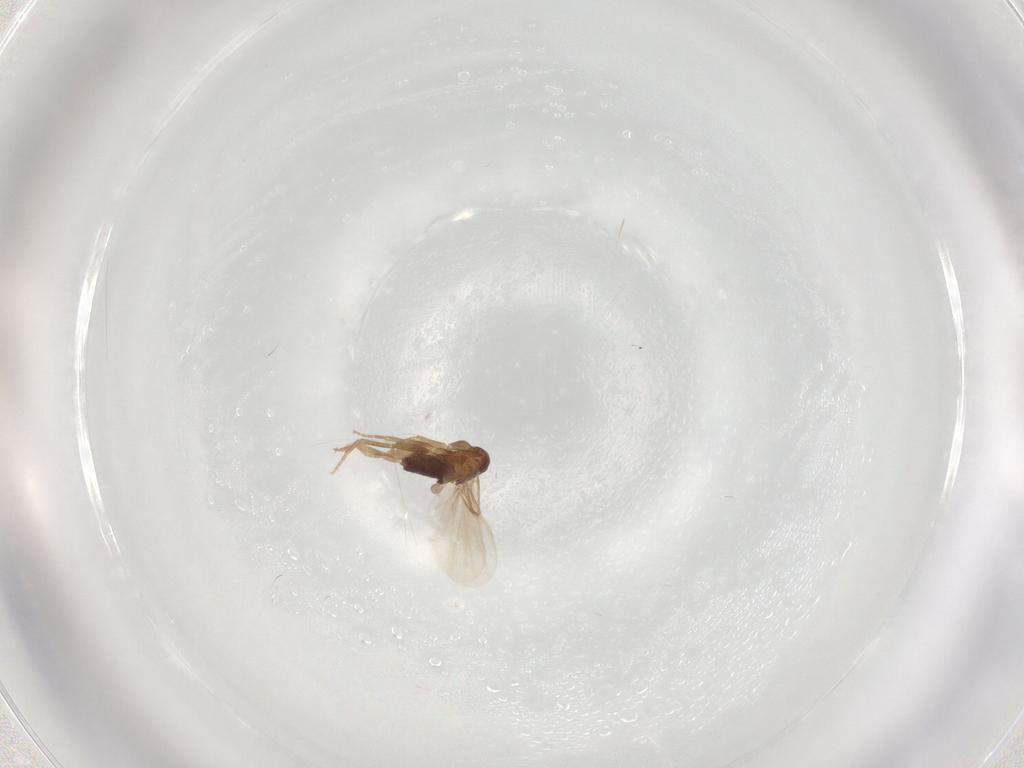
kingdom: Animalia
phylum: Arthropoda
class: Insecta
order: Diptera
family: Phoridae
